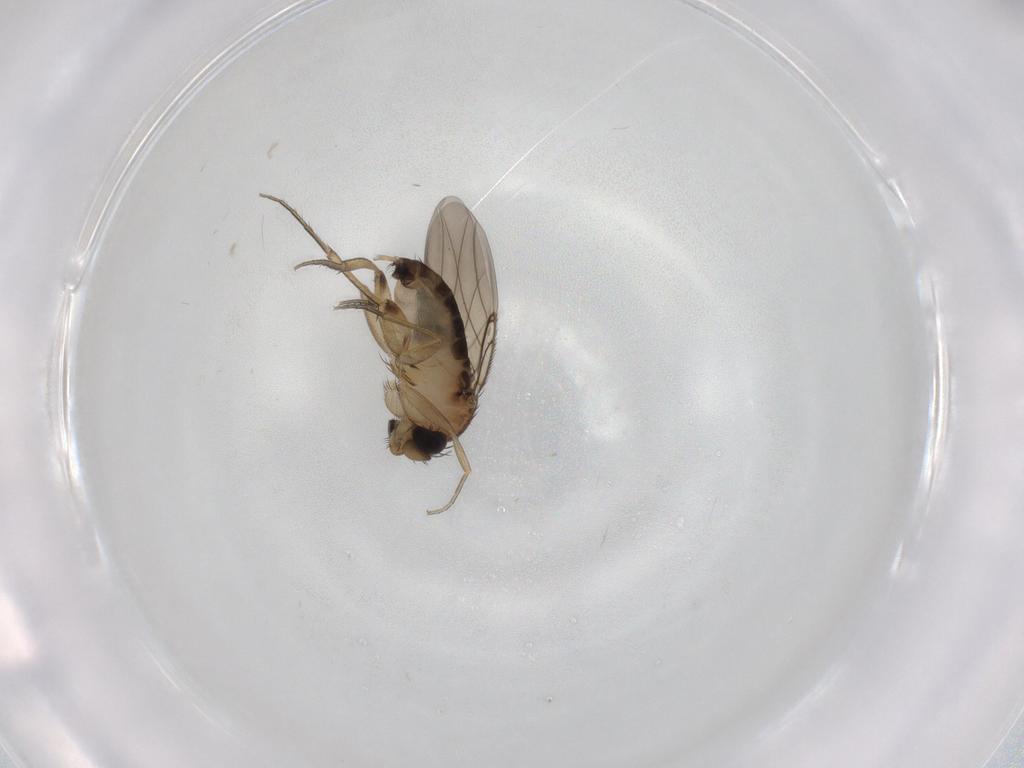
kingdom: Animalia
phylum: Arthropoda
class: Insecta
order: Diptera
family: Phoridae
